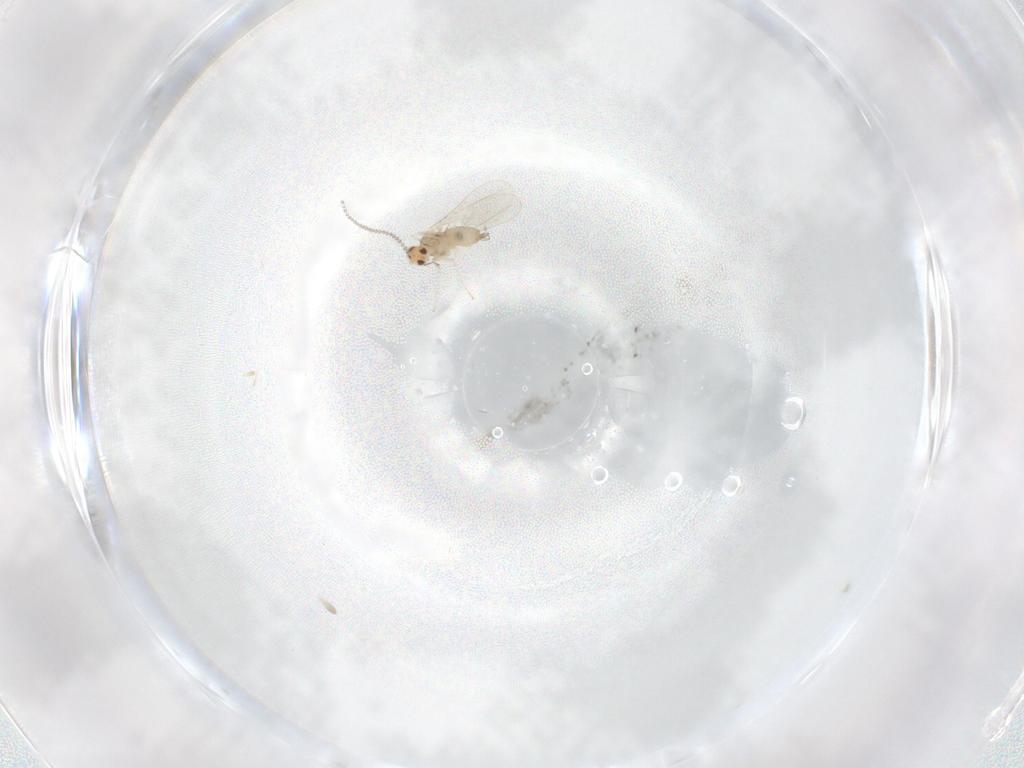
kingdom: Animalia
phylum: Arthropoda
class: Insecta
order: Diptera
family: Cecidomyiidae
